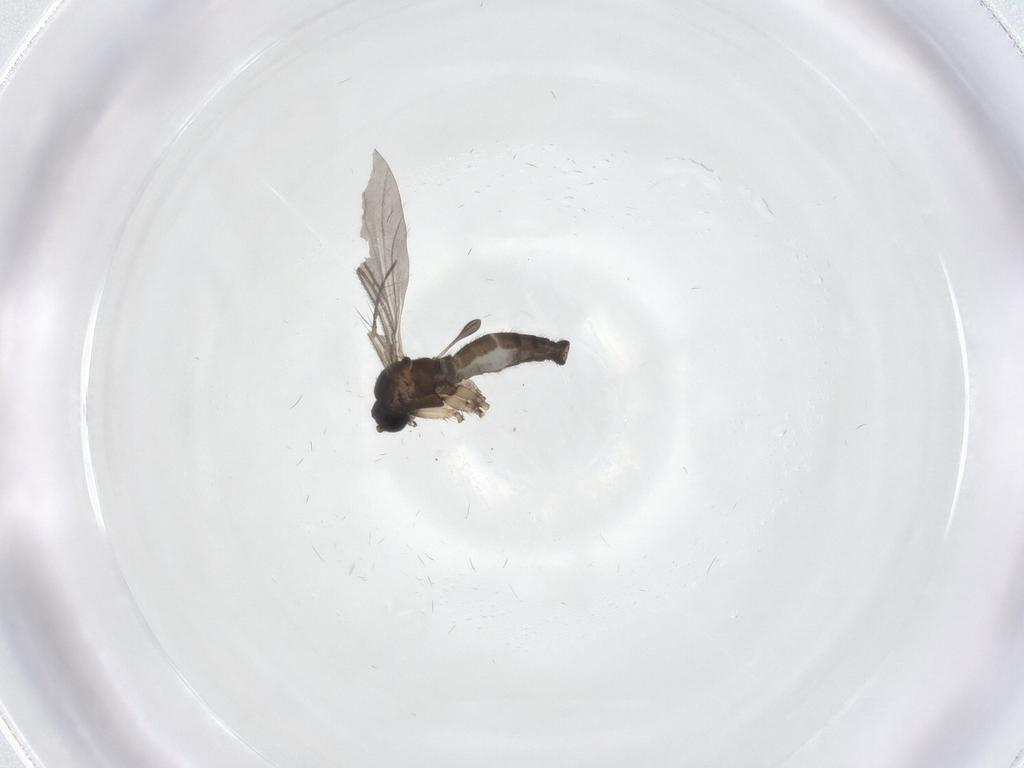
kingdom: Animalia
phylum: Arthropoda
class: Insecta
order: Diptera
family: Sciaridae
